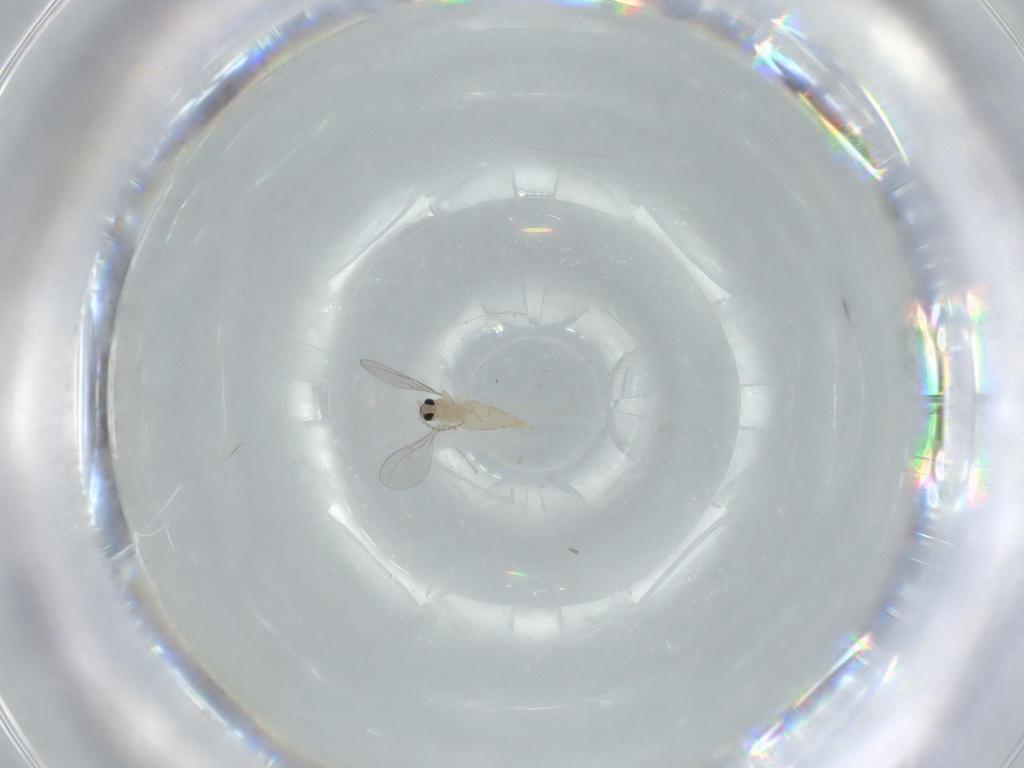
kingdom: Animalia
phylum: Arthropoda
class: Insecta
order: Diptera
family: Cecidomyiidae
